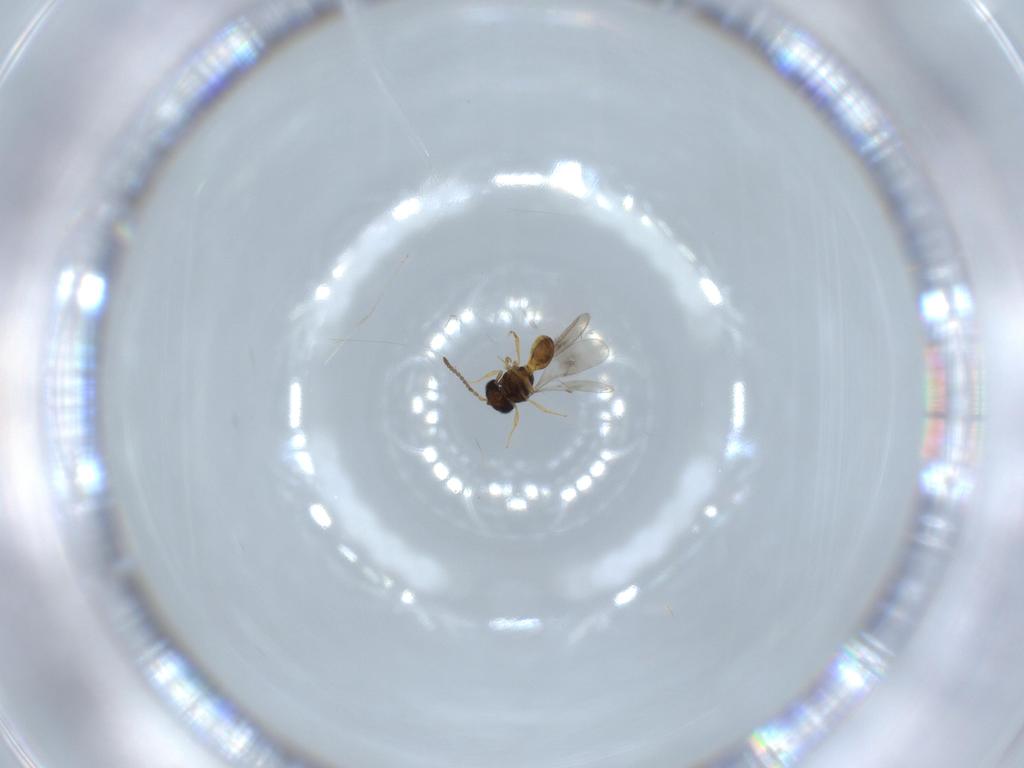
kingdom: Animalia
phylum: Arthropoda
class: Insecta
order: Hymenoptera
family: Scelionidae
